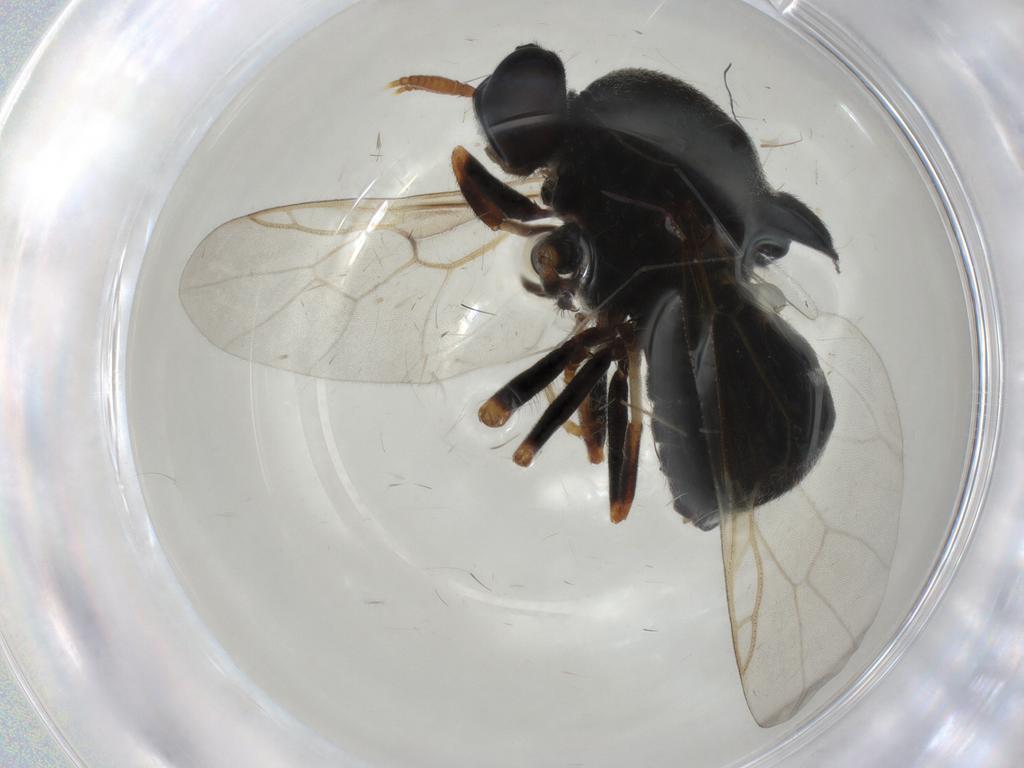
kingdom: Animalia
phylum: Arthropoda
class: Insecta
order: Diptera
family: Stratiomyidae
